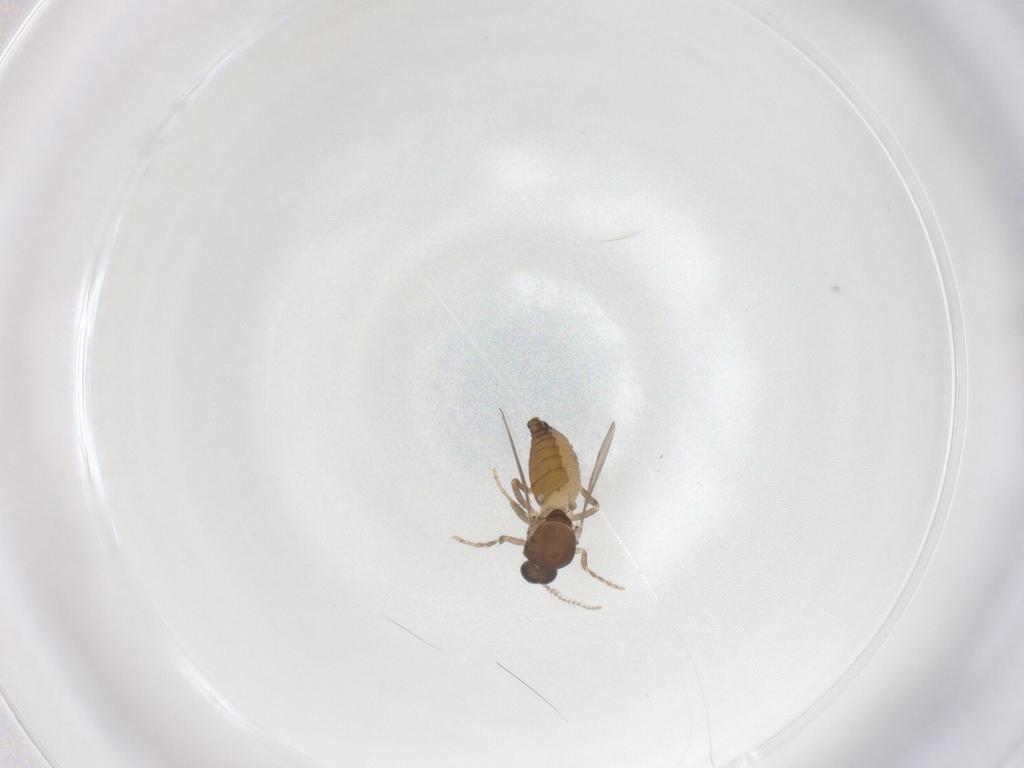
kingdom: Animalia
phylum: Arthropoda
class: Insecta
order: Diptera
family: Ceratopogonidae
